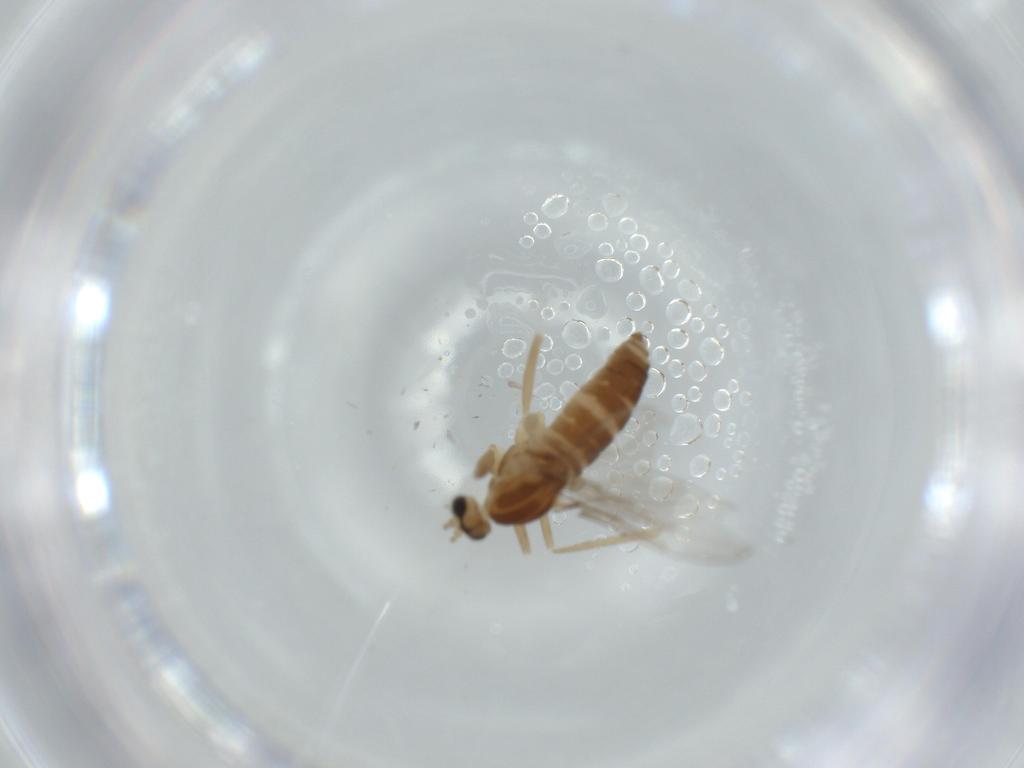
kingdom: Animalia
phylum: Arthropoda
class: Insecta
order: Diptera
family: Cecidomyiidae
